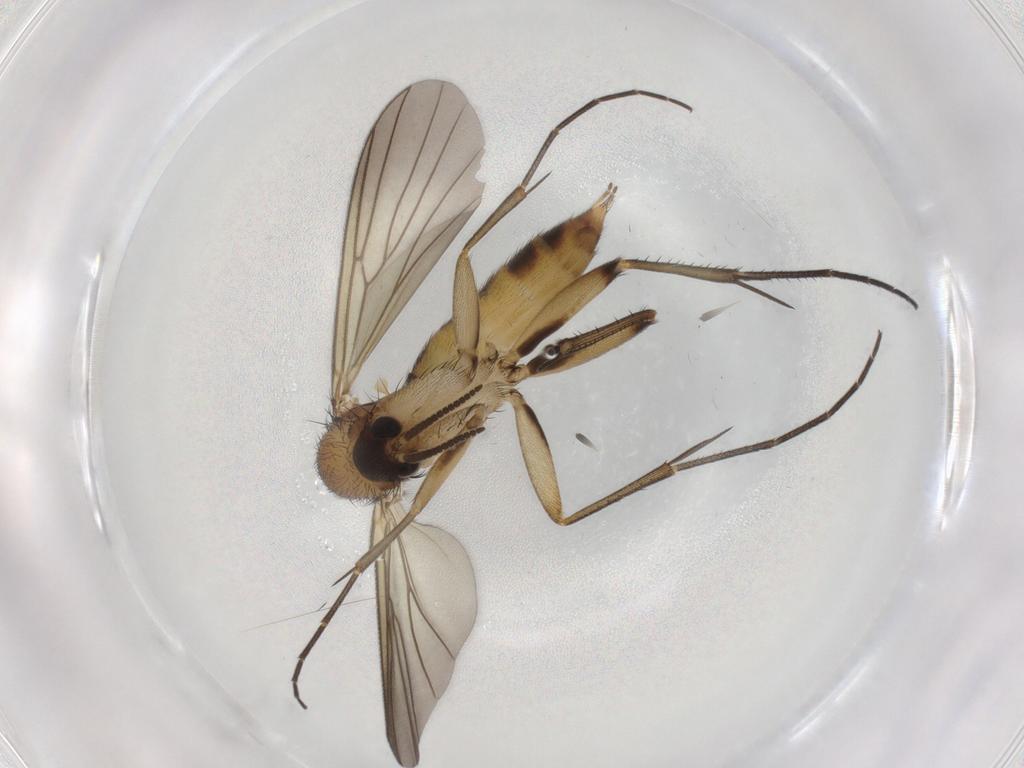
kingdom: Animalia
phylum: Arthropoda
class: Insecta
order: Diptera
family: Mycetophilidae
